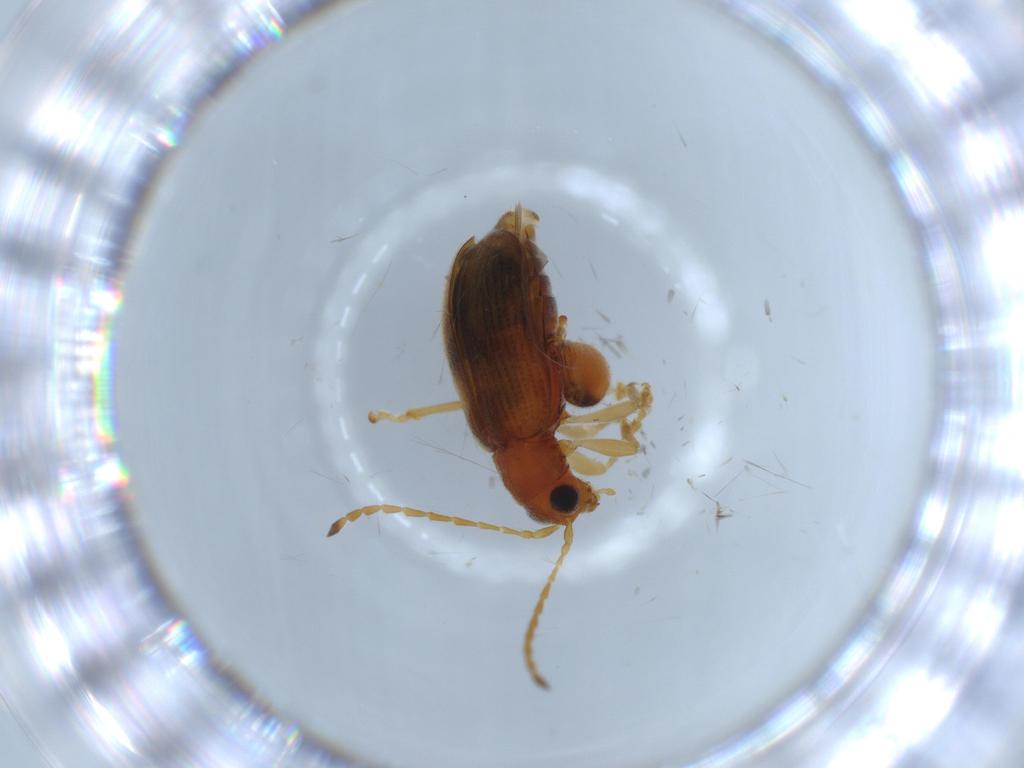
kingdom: Animalia
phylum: Arthropoda
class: Insecta
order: Coleoptera
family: Chrysomelidae
